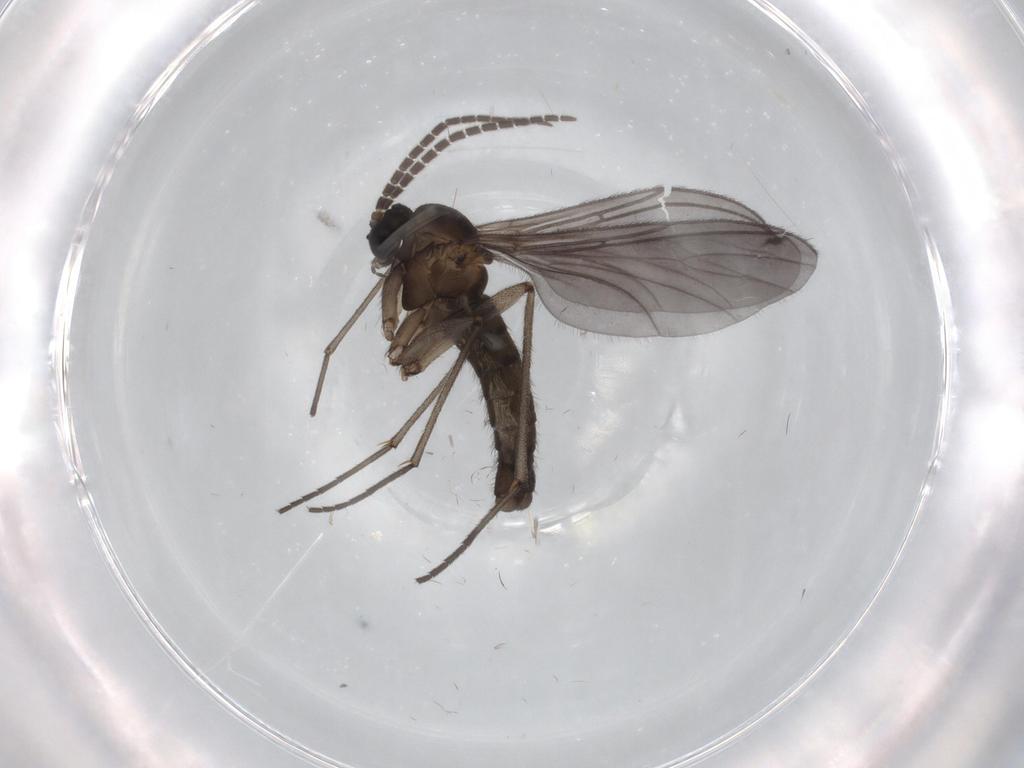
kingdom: Animalia
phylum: Arthropoda
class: Insecta
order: Diptera
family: Sciaridae
